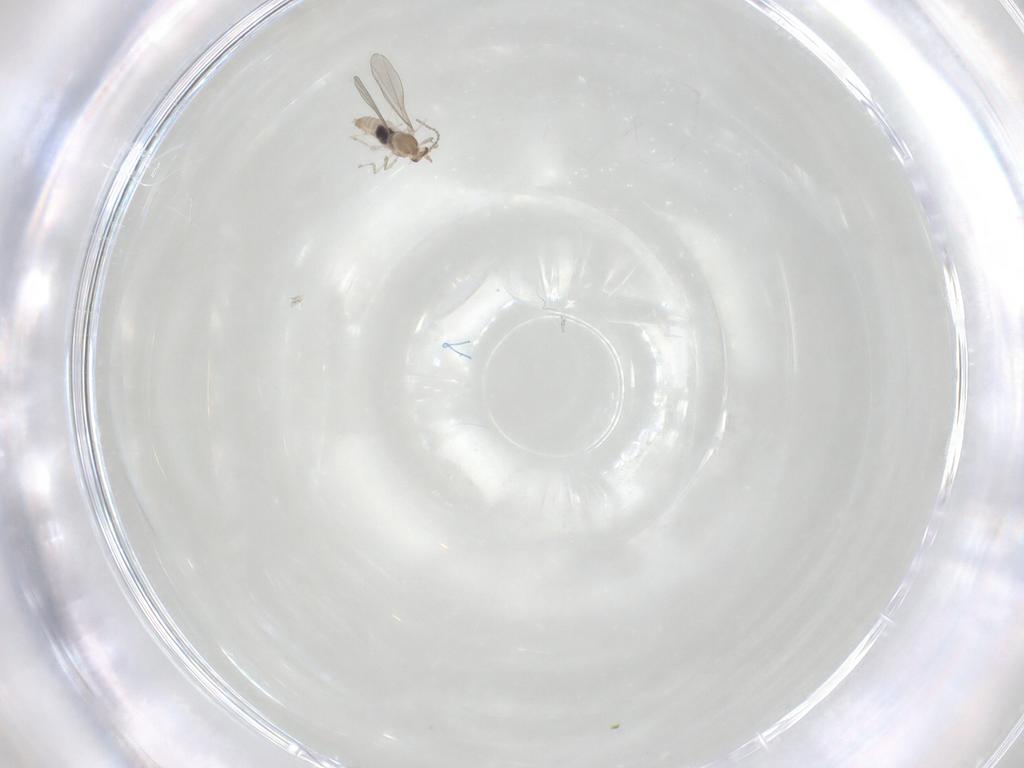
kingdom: Animalia
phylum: Arthropoda
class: Insecta
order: Diptera
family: Cecidomyiidae
